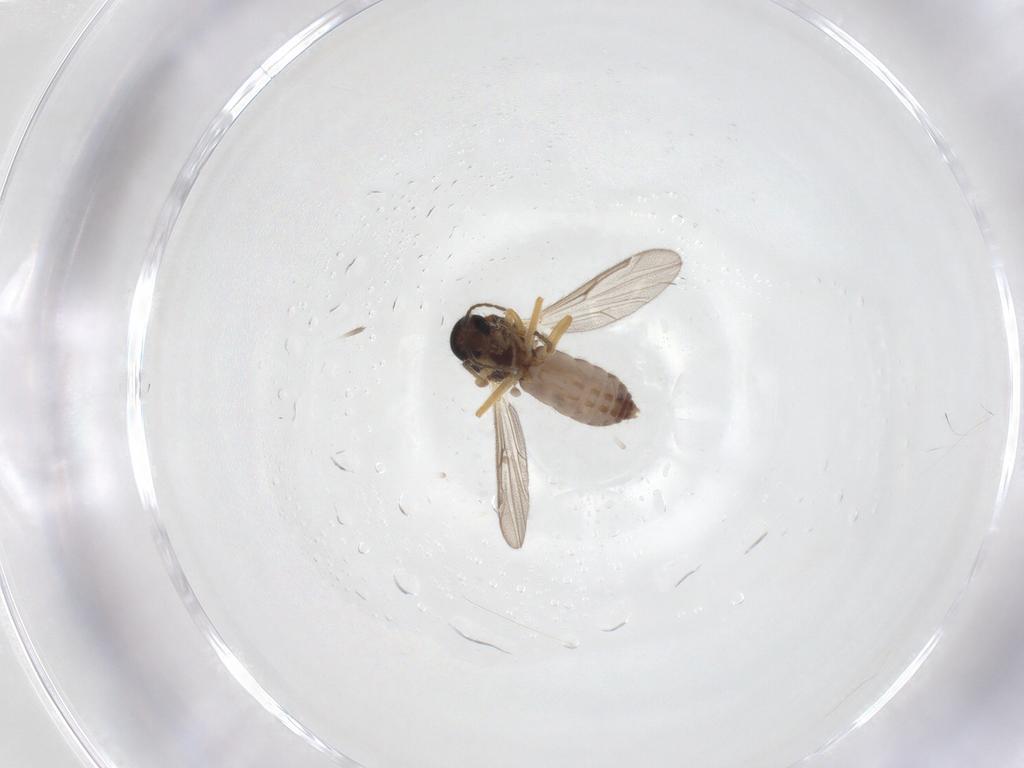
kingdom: Animalia
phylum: Arthropoda
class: Insecta
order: Diptera
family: Ceratopogonidae
